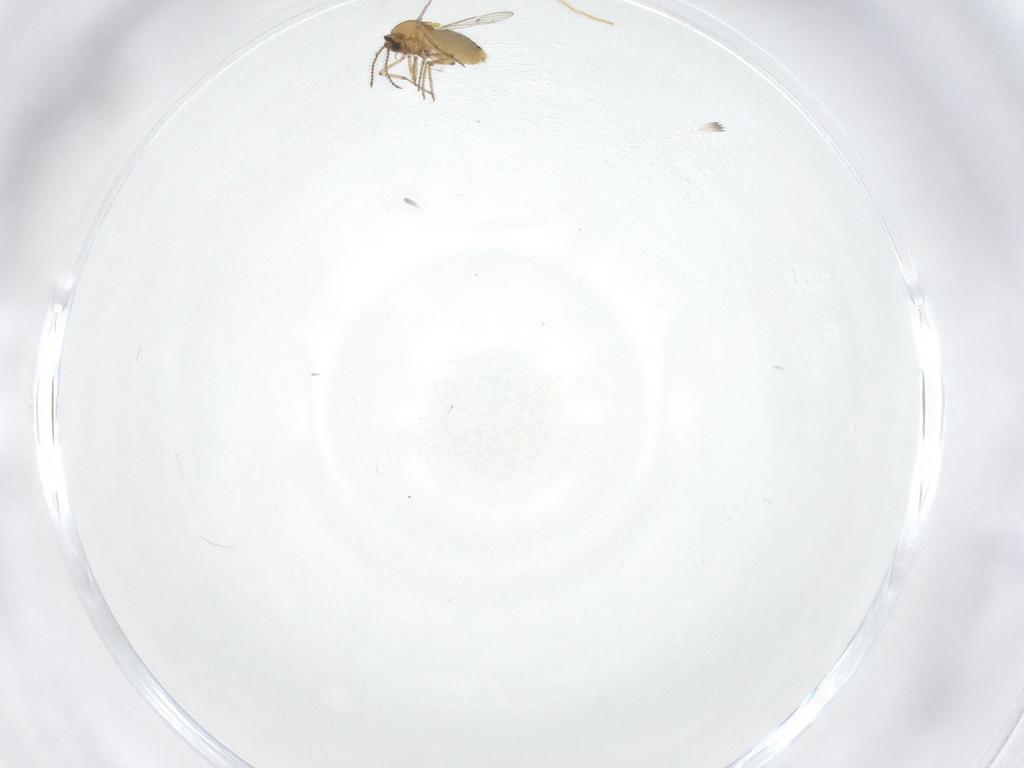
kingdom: Animalia
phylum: Arthropoda
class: Insecta
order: Diptera
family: Ceratopogonidae
